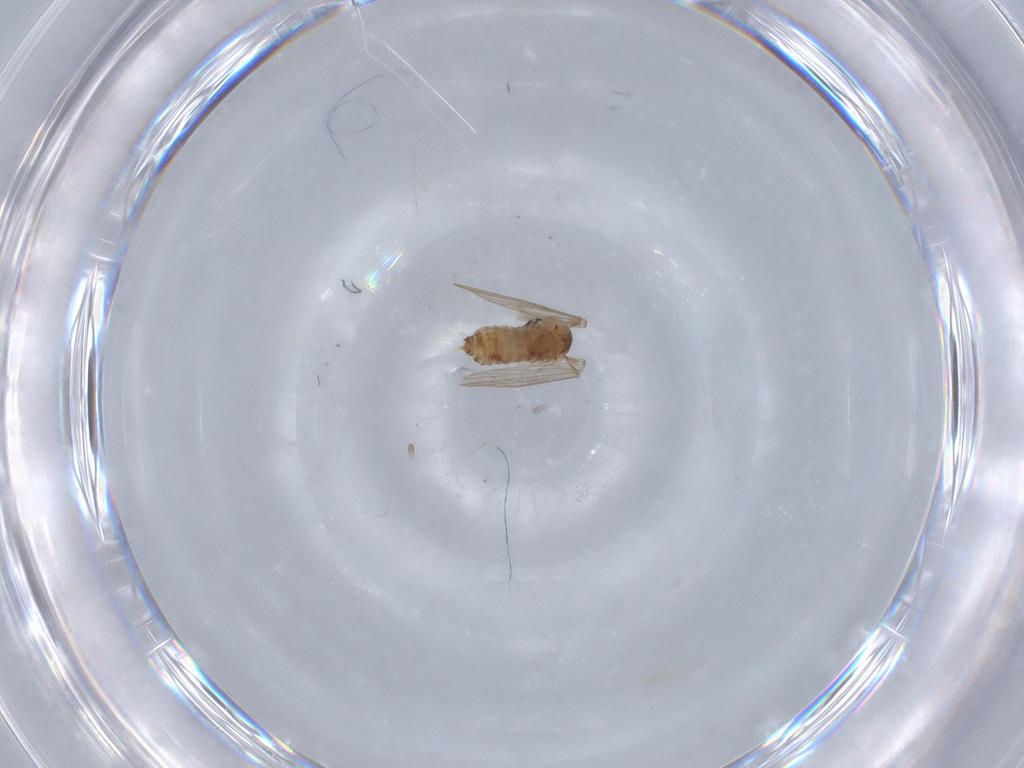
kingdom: Animalia
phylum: Arthropoda
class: Insecta
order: Diptera
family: Psychodidae
